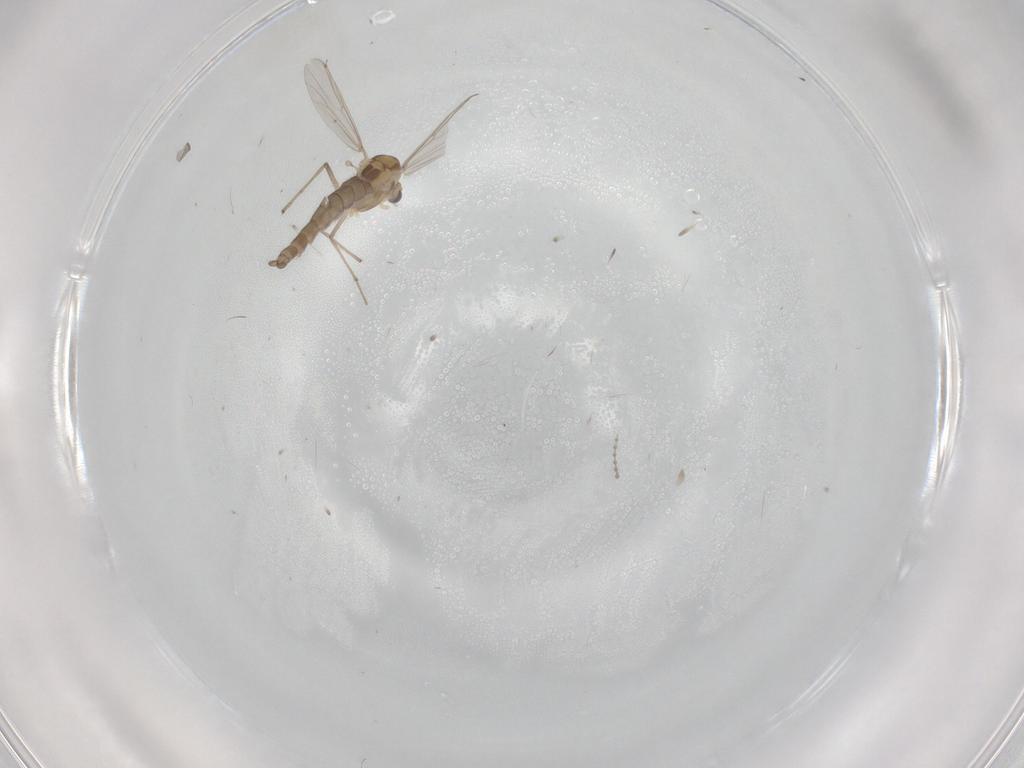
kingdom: Animalia
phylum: Arthropoda
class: Insecta
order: Diptera
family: Chironomidae
